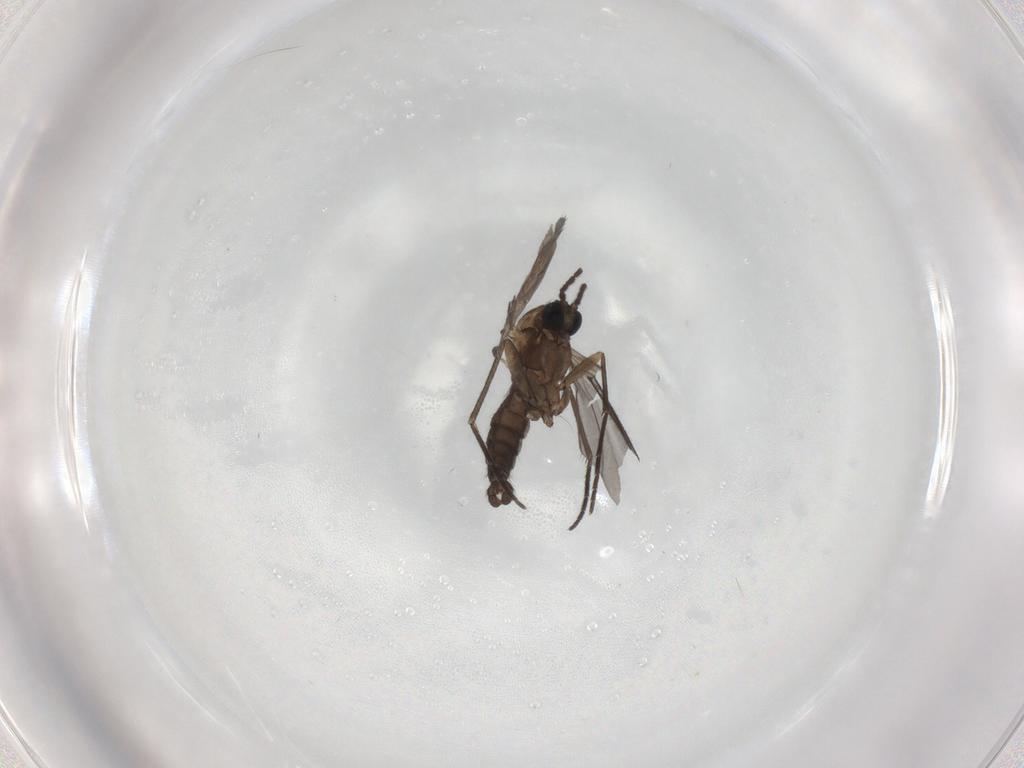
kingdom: Animalia
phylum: Arthropoda
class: Insecta
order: Diptera
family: Sciaridae
